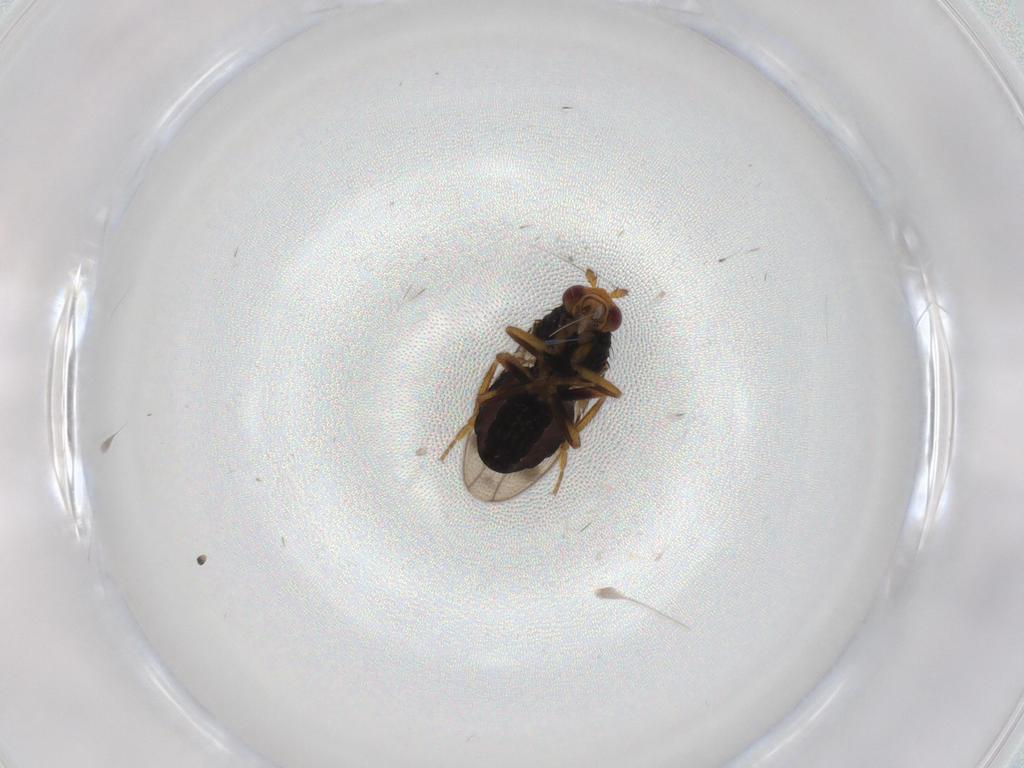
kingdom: Animalia
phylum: Arthropoda
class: Insecta
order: Diptera
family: Sphaeroceridae
